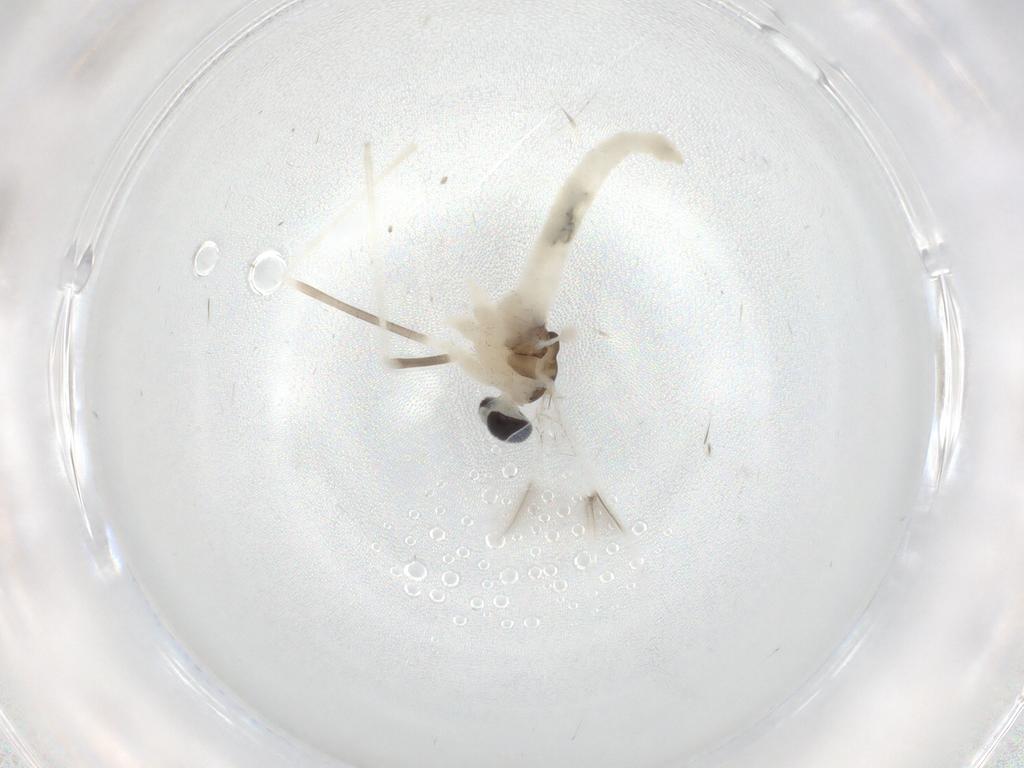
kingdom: Animalia
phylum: Arthropoda
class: Insecta
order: Diptera
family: Cecidomyiidae
